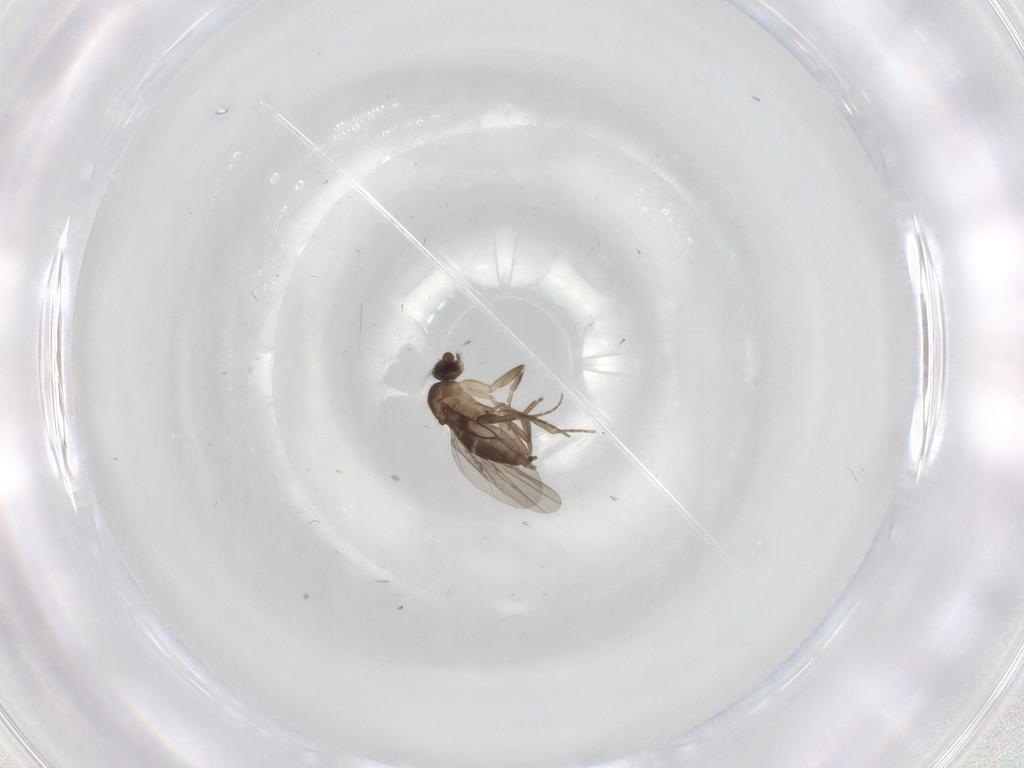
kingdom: Animalia
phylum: Arthropoda
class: Insecta
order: Diptera
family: Phoridae
